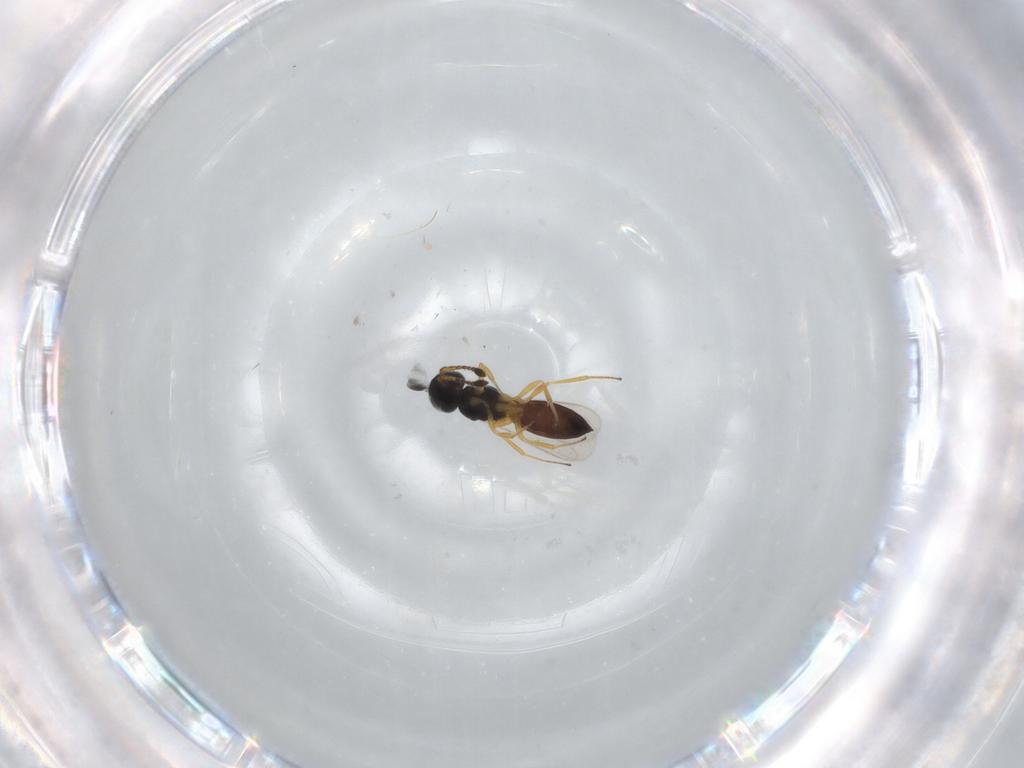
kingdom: Animalia
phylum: Arthropoda
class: Insecta
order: Hymenoptera
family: Scelionidae
